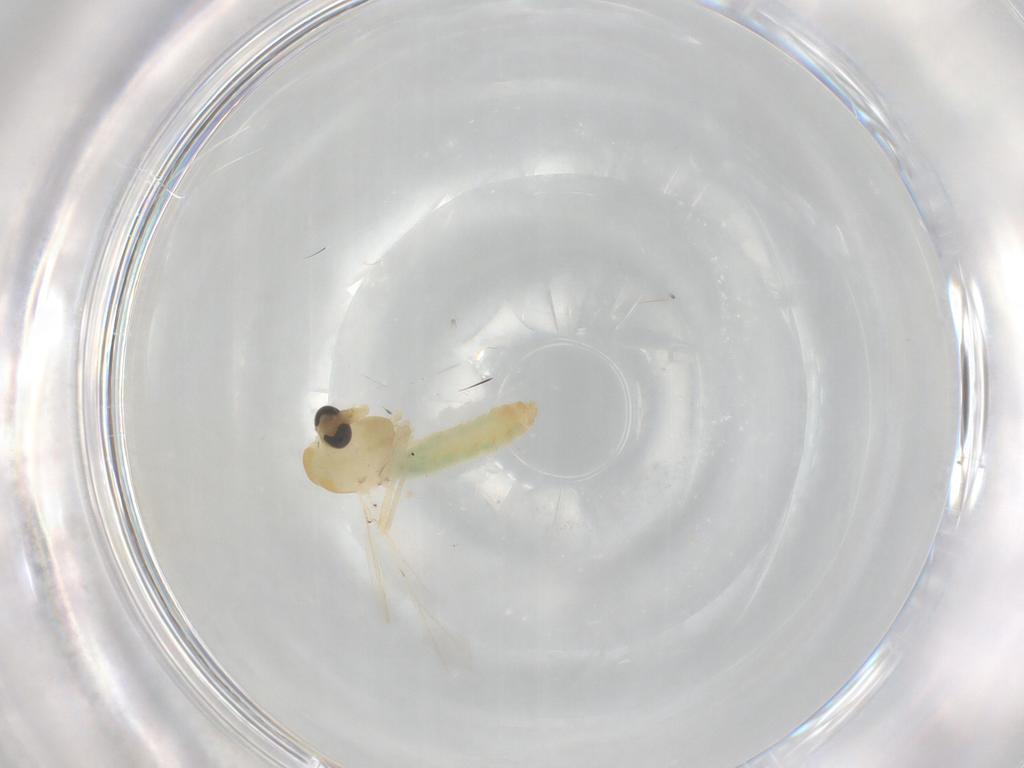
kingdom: Animalia
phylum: Arthropoda
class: Insecta
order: Diptera
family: Chironomidae
